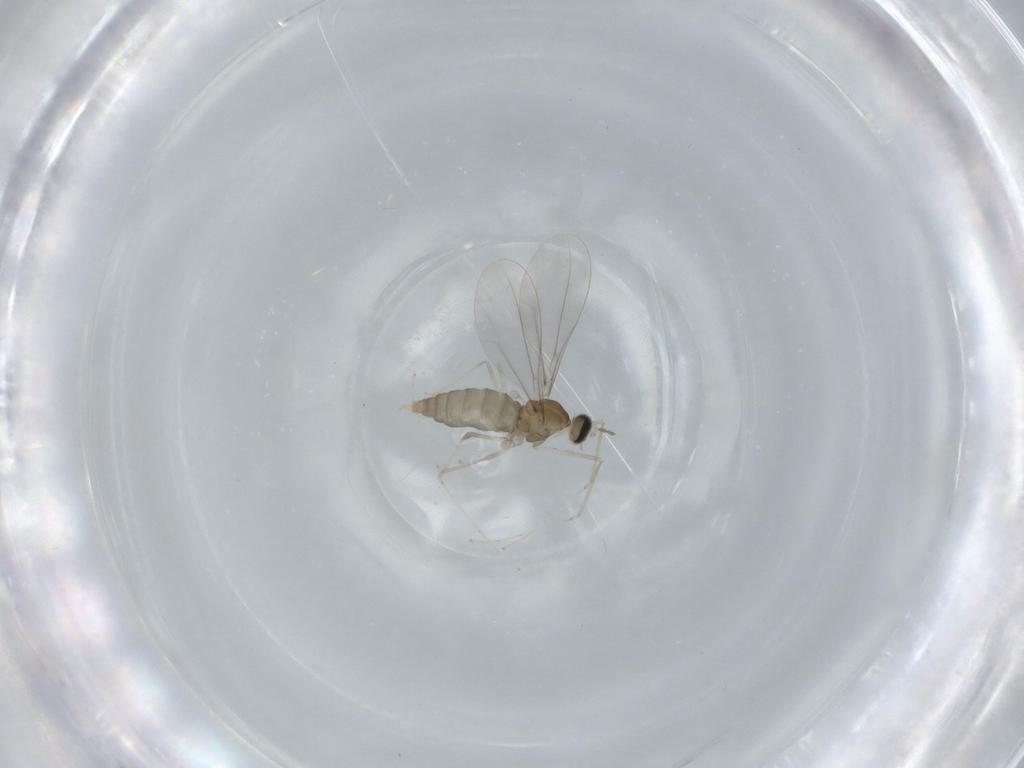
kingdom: Animalia
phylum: Arthropoda
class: Insecta
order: Diptera
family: Cecidomyiidae
